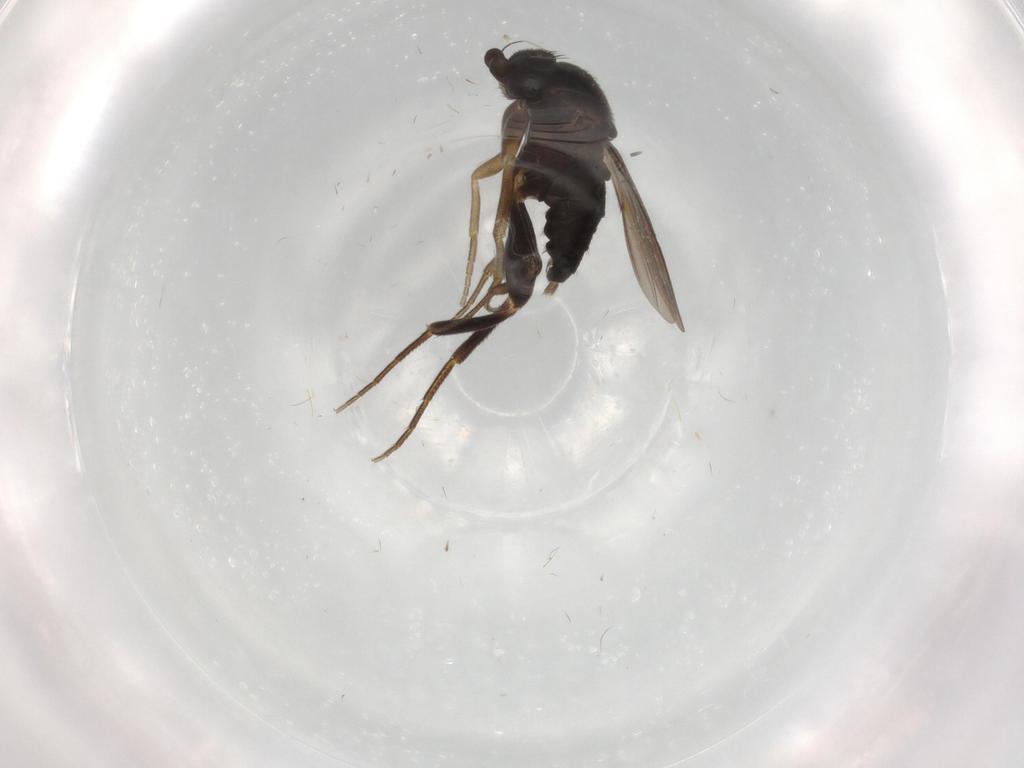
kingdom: Animalia
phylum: Arthropoda
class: Insecta
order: Diptera
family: Cecidomyiidae
